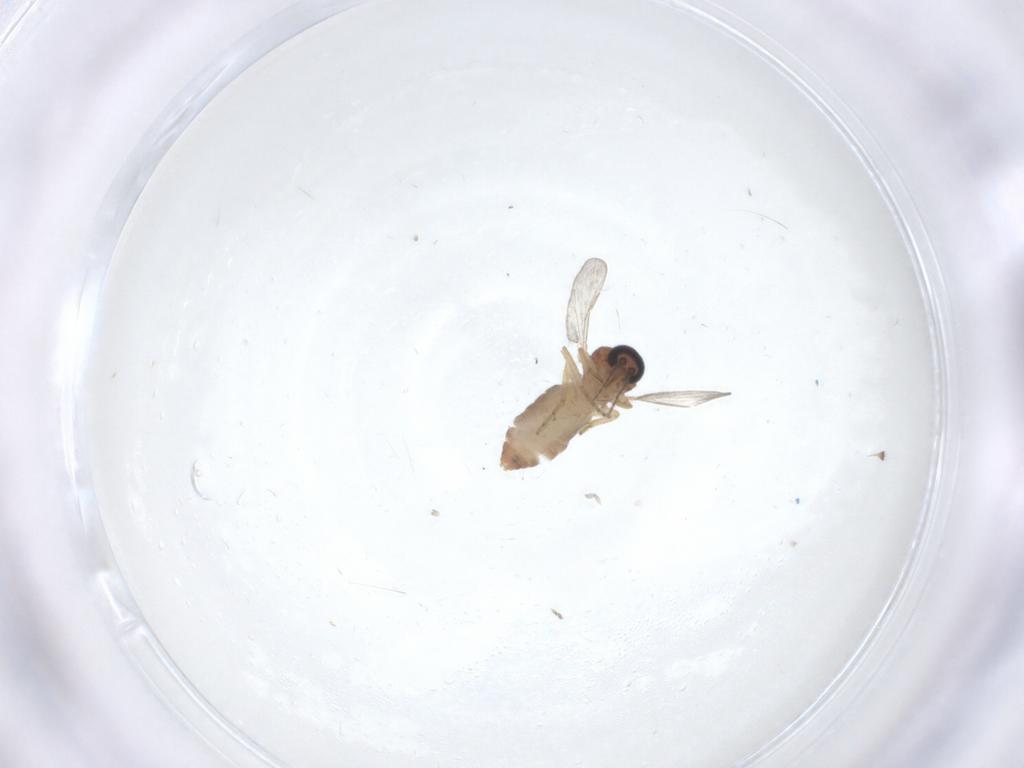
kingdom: Animalia
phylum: Arthropoda
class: Insecta
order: Diptera
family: Ceratopogonidae
